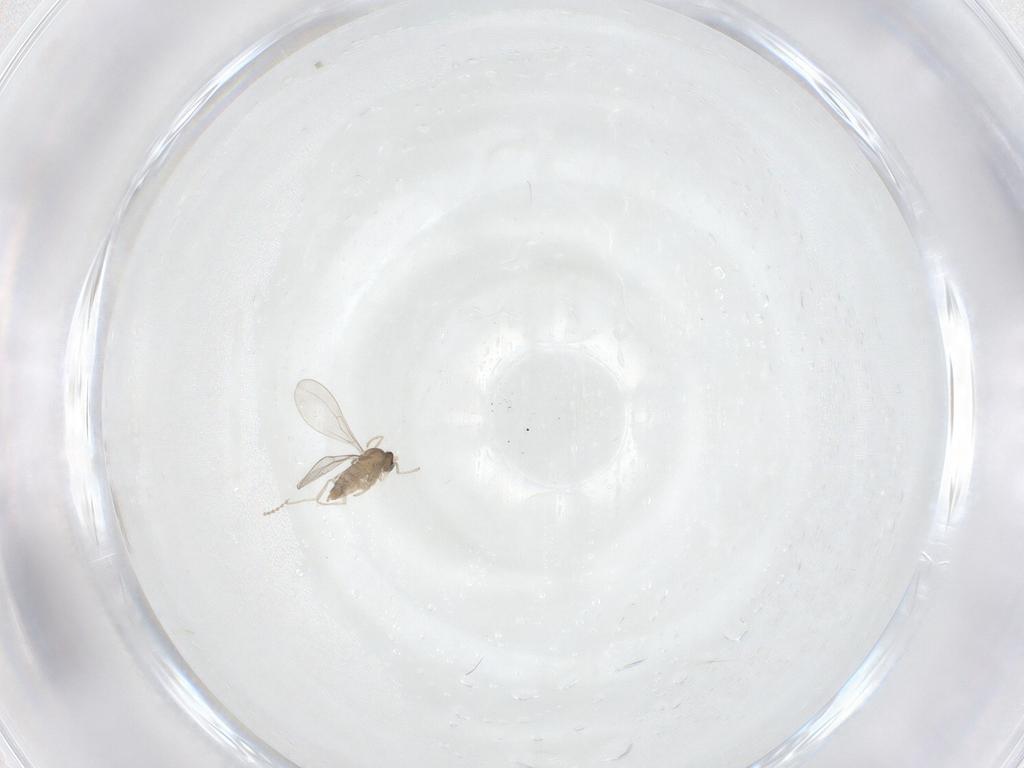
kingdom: Animalia
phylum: Arthropoda
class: Insecta
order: Diptera
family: Cecidomyiidae
